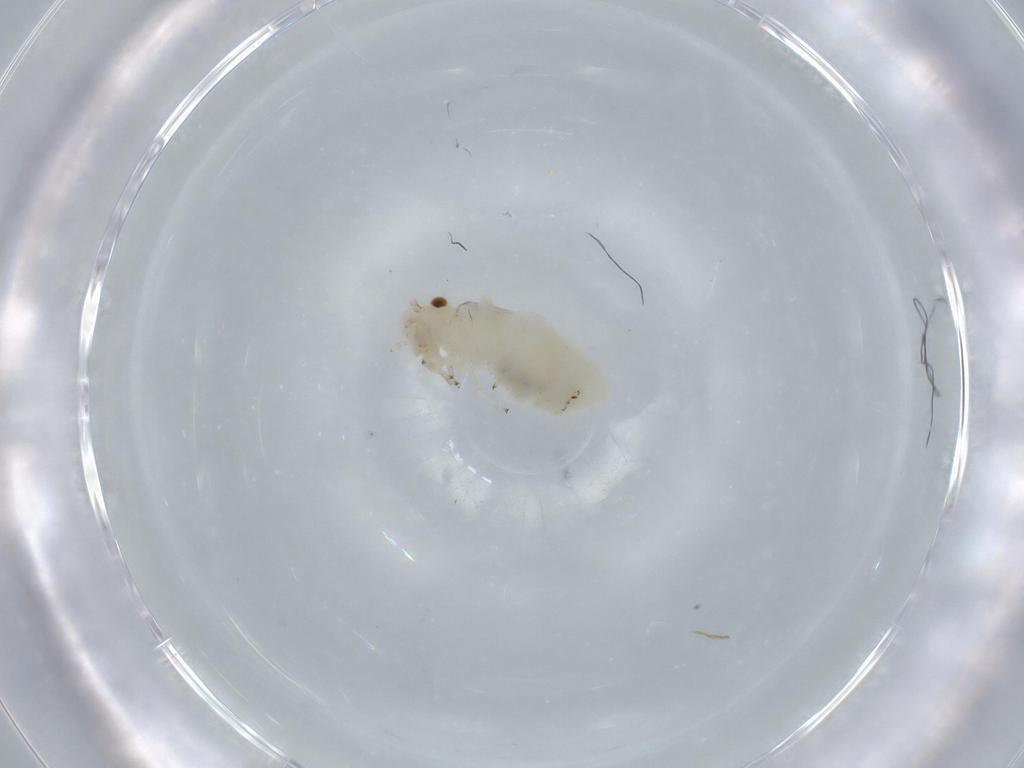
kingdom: Animalia
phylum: Arthropoda
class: Insecta
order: Psocodea
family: Caeciliusidae
